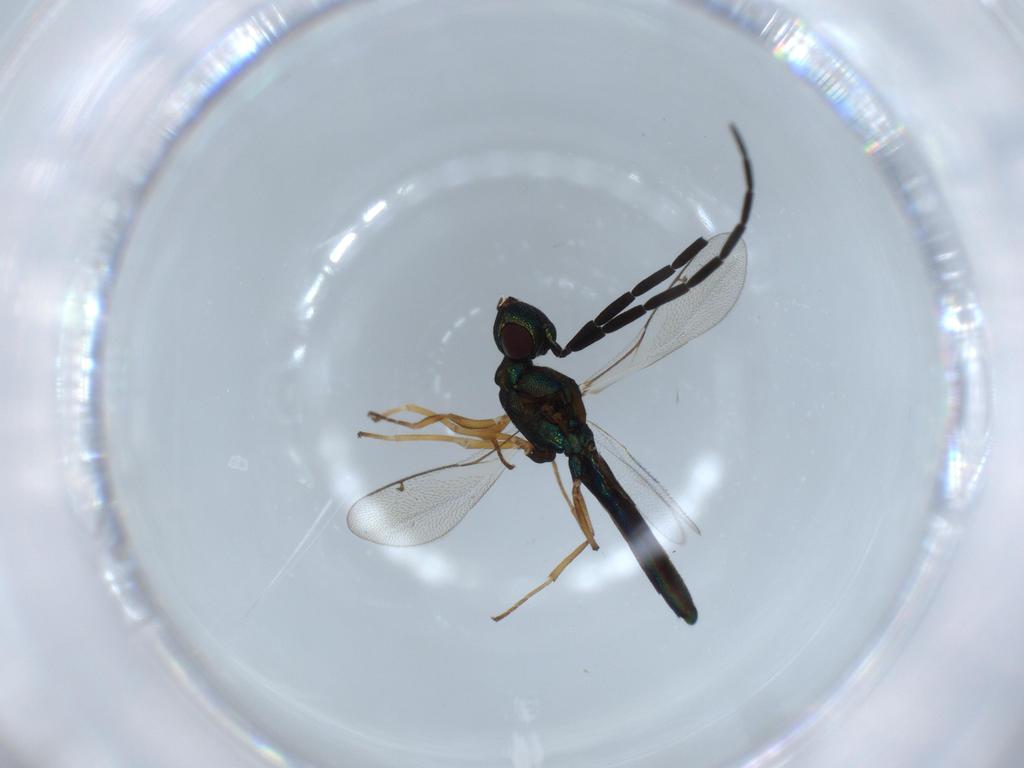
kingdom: Animalia
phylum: Arthropoda
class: Insecta
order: Hymenoptera
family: Eupelmidae
